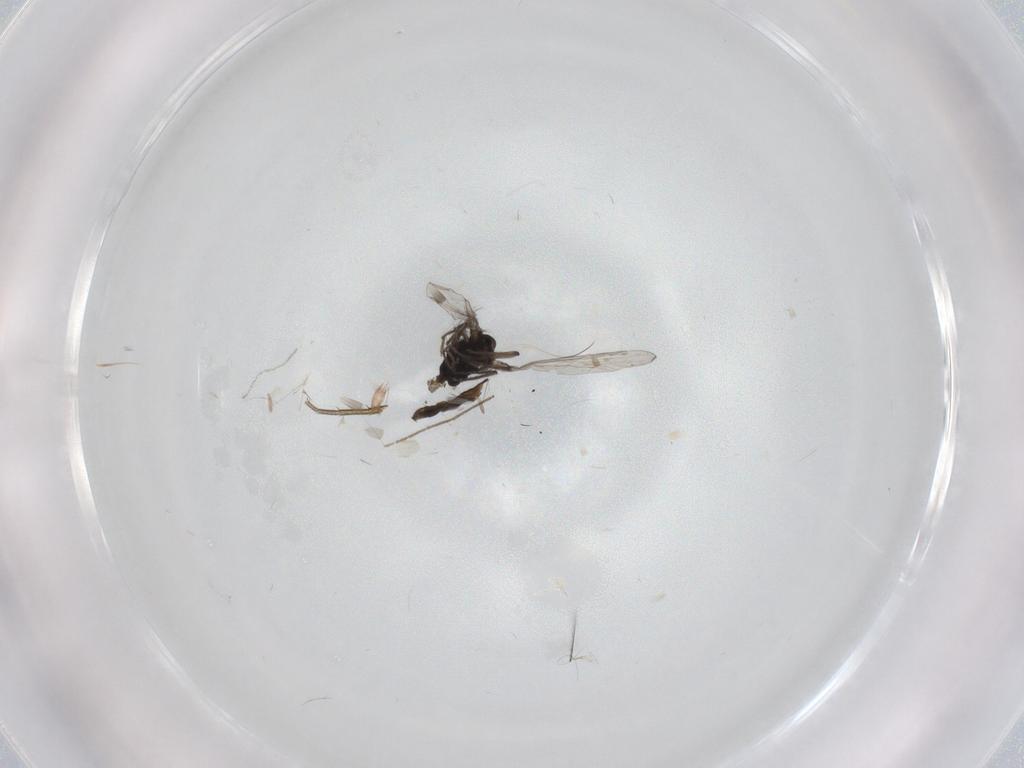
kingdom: Animalia
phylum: Arthropoda
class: Insecta
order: Diptera
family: Chironomidae
